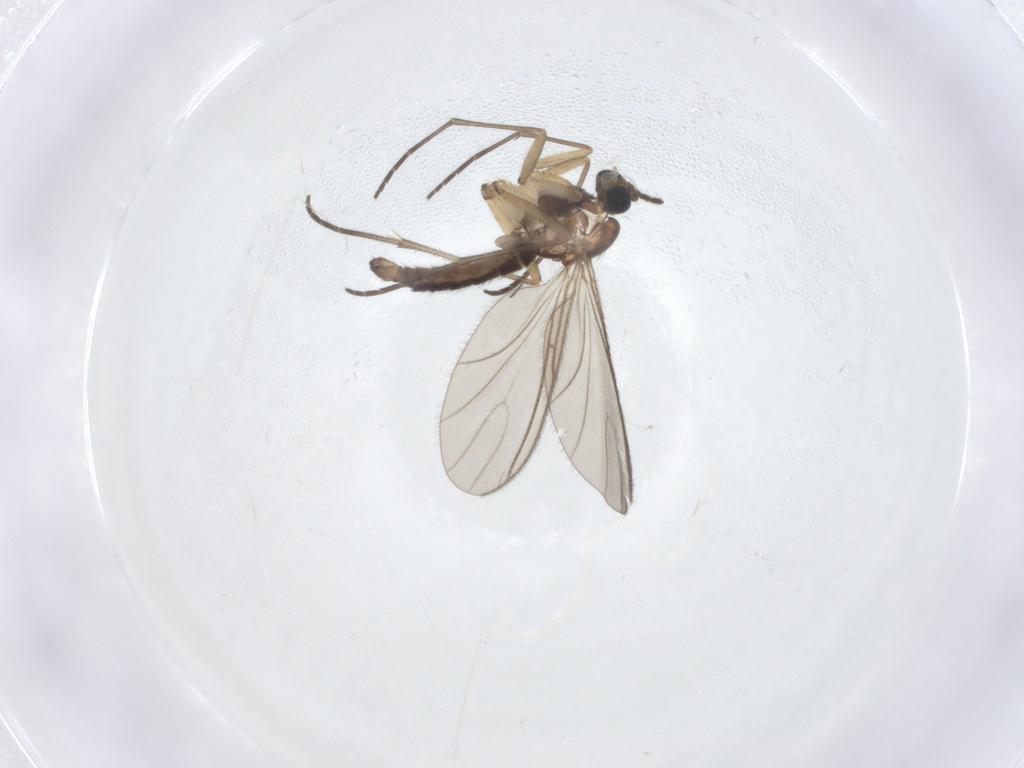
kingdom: Animalia
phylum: Arthropoda
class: Insecta
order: Diptera
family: Sciaridae
